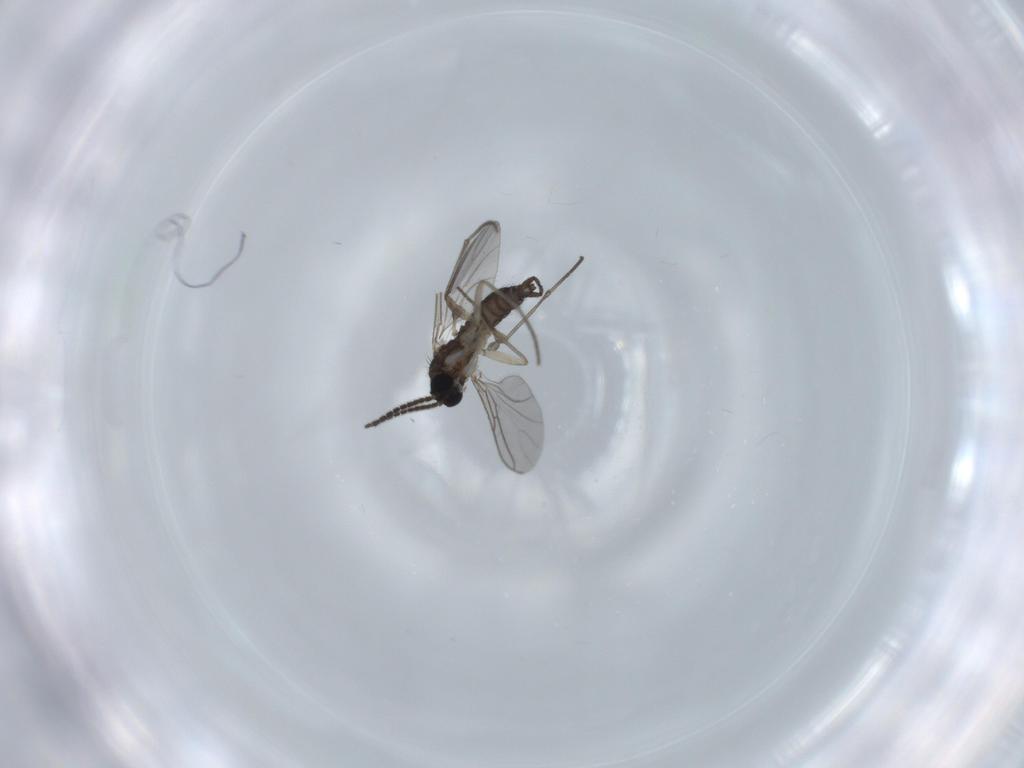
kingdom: Animalia
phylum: Arthropoda
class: Insecta
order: Diptera
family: Sciaridae
